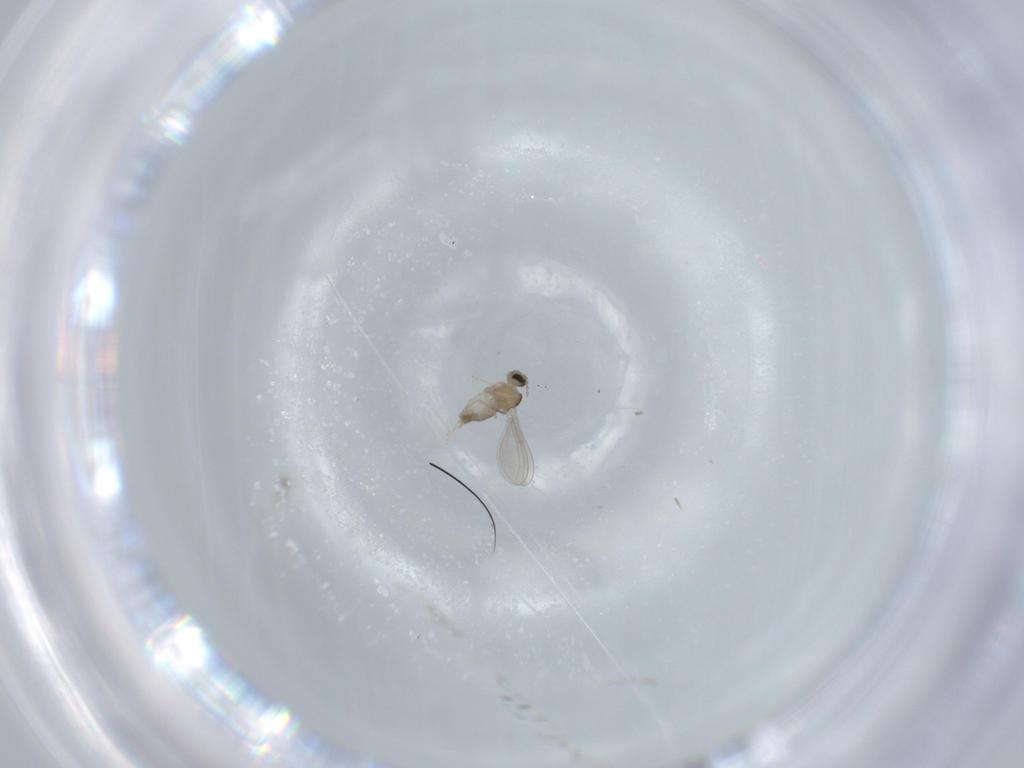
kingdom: Animalia
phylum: Arthropoda
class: Insecta
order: Diptera
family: Cecidomyiidae
